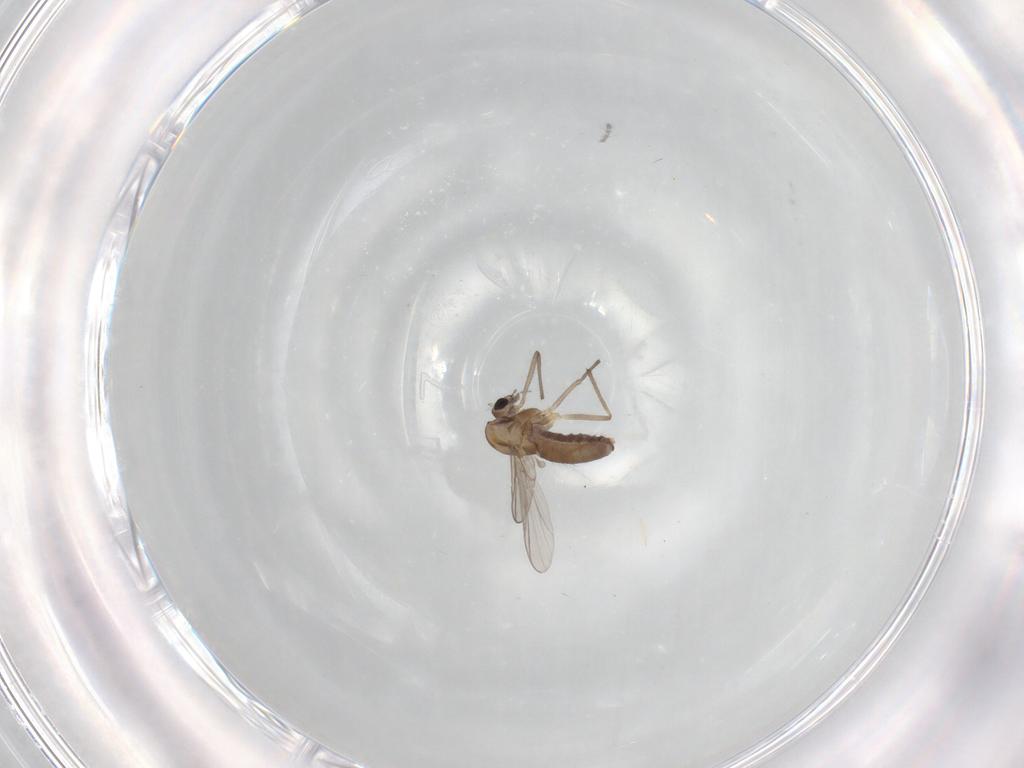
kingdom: Animalia
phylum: Arthropoda
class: Insecta
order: Diptera
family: Chironomidae
